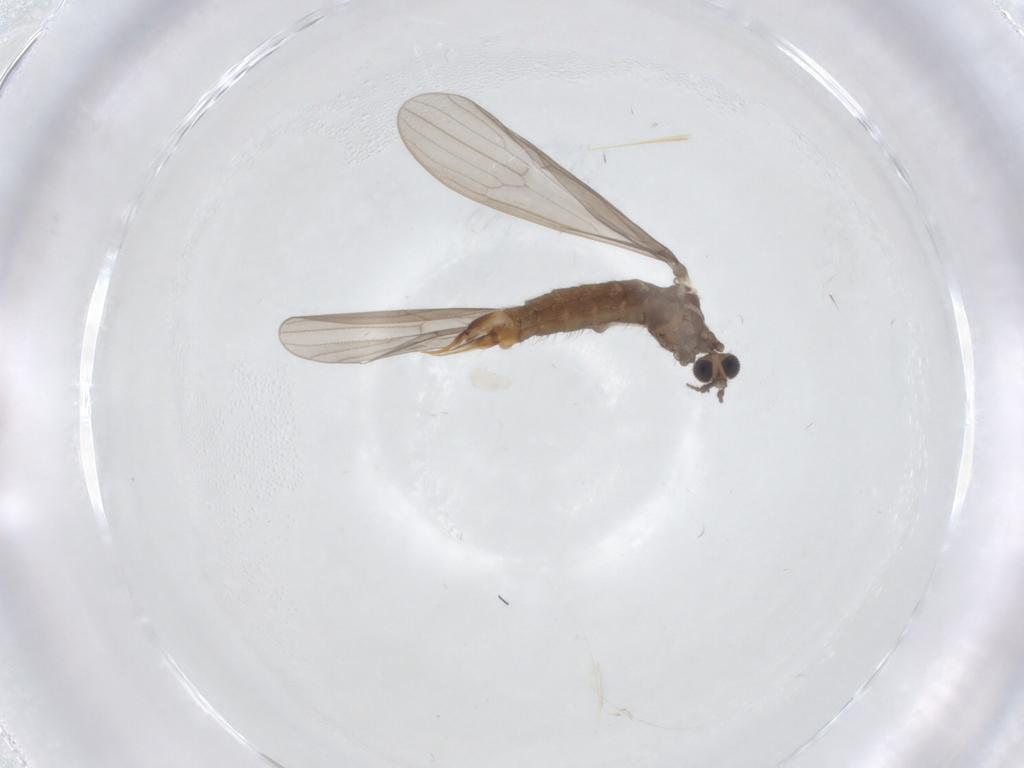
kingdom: Animalia
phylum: Arthropoda
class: Insecta
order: Diptera
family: Limoniidae
